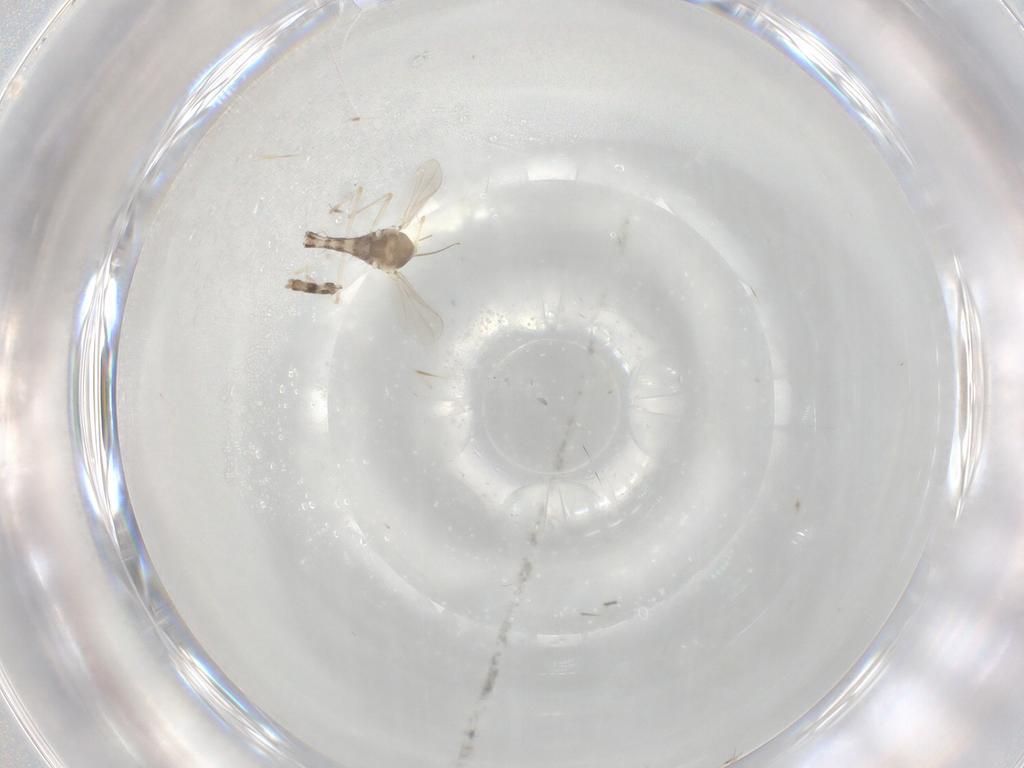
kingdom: Animalia
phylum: Arthropoda
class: Insecta
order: Diptera
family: Chironomidae
